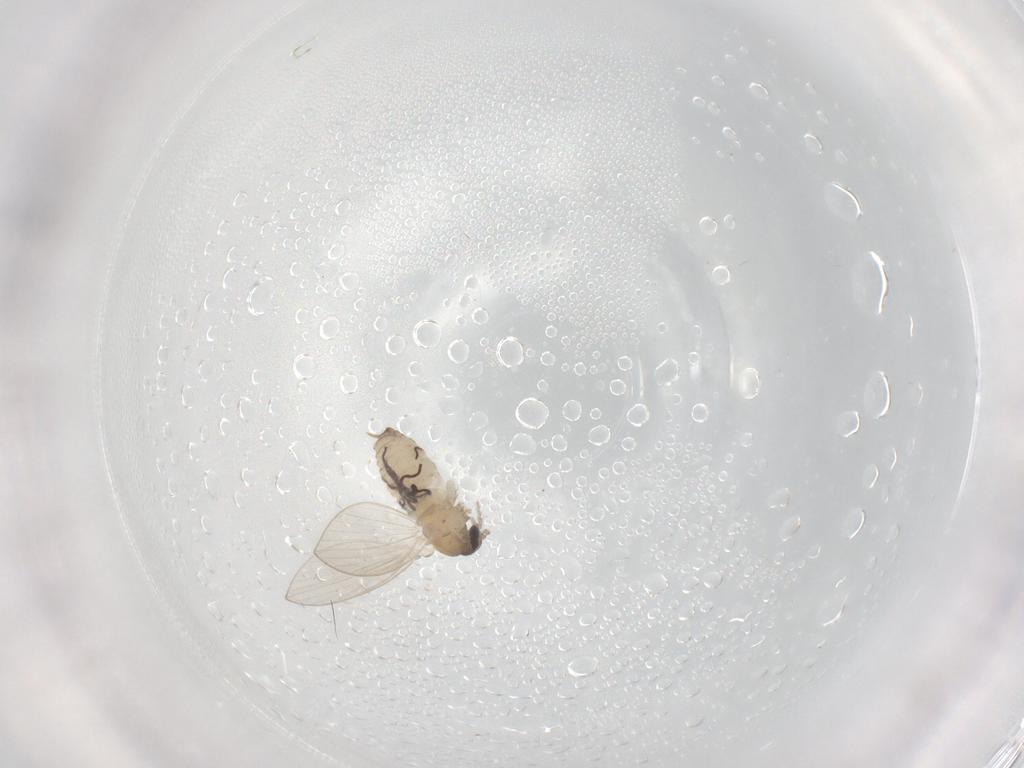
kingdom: Animalia
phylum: Arthropoda
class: Insecta
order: Diptera
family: Psychodidae
